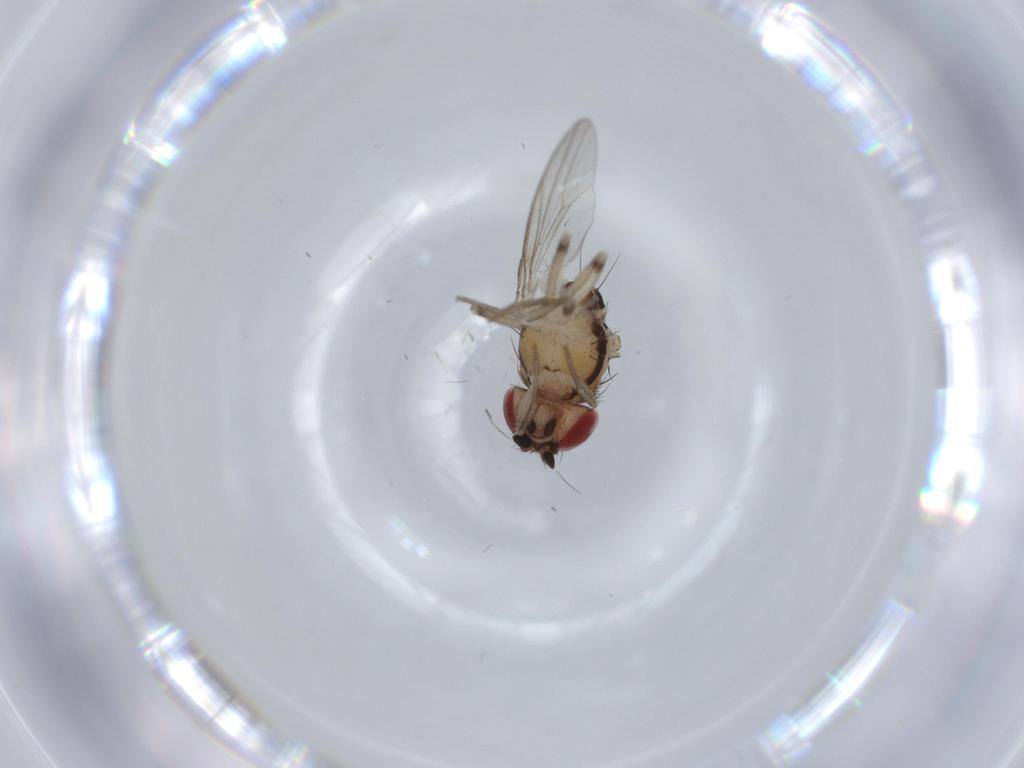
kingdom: Animalia
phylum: Arthropoda
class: Insecta
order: Diptera
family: Drosophilidae
